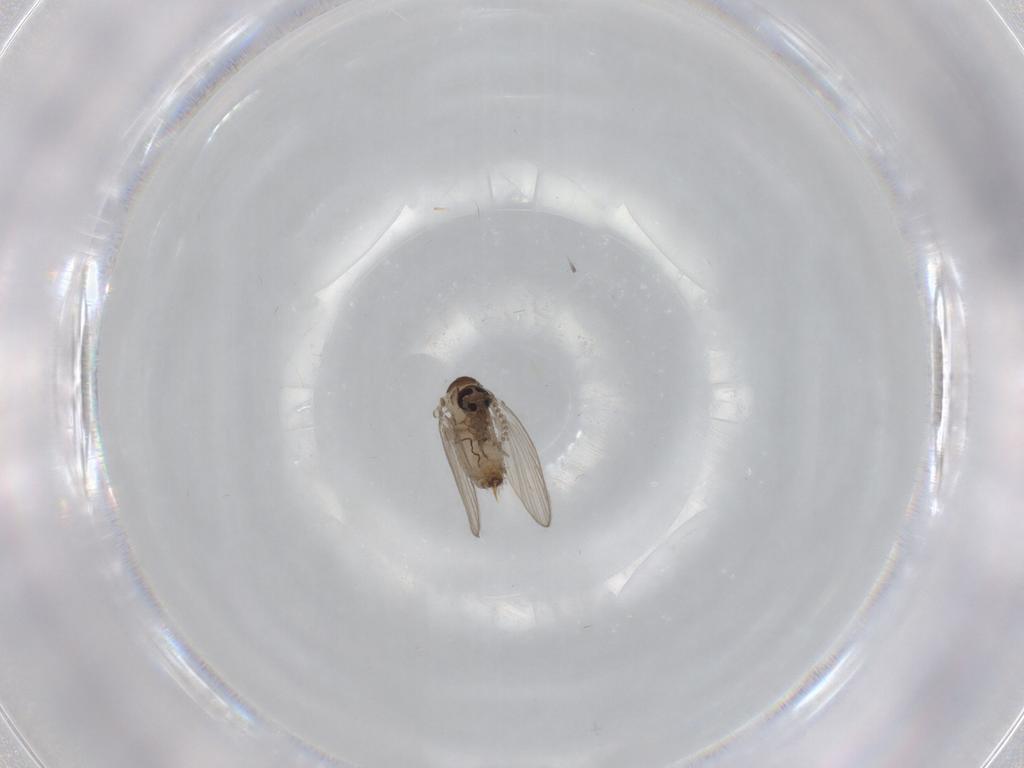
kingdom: Animalia
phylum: Arthropoda
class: Insecta
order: Diptera
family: Psychodidae
